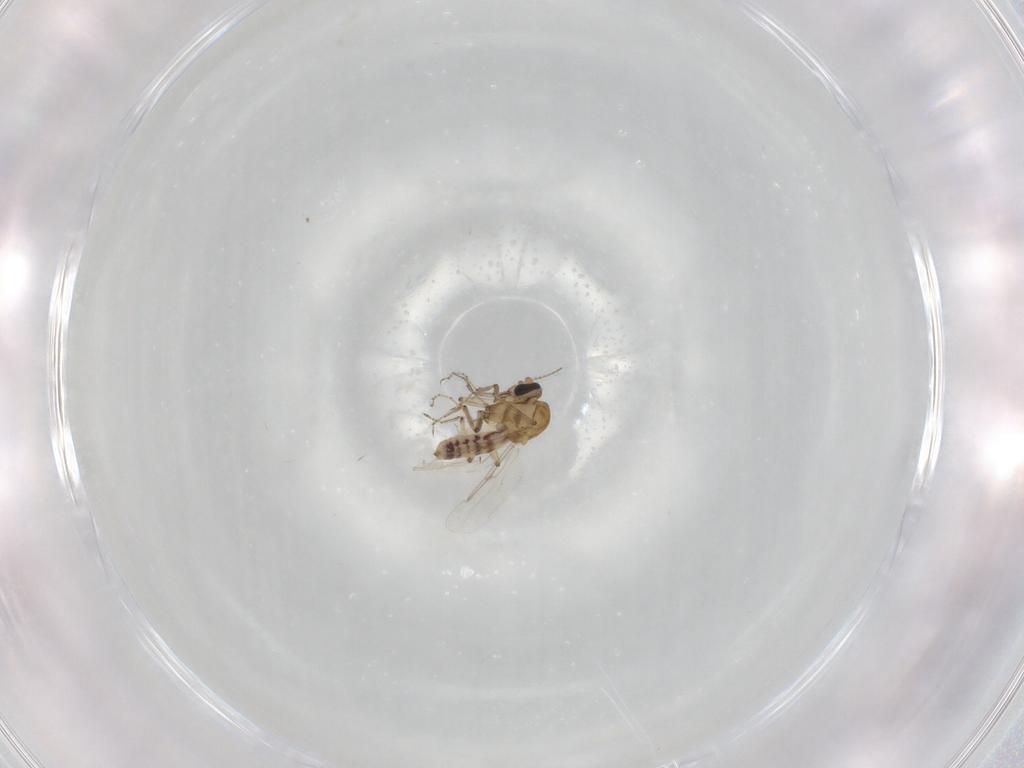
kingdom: Animalia
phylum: Arthropoda
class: Insecta
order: Diptera
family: Ceratopogonidae
